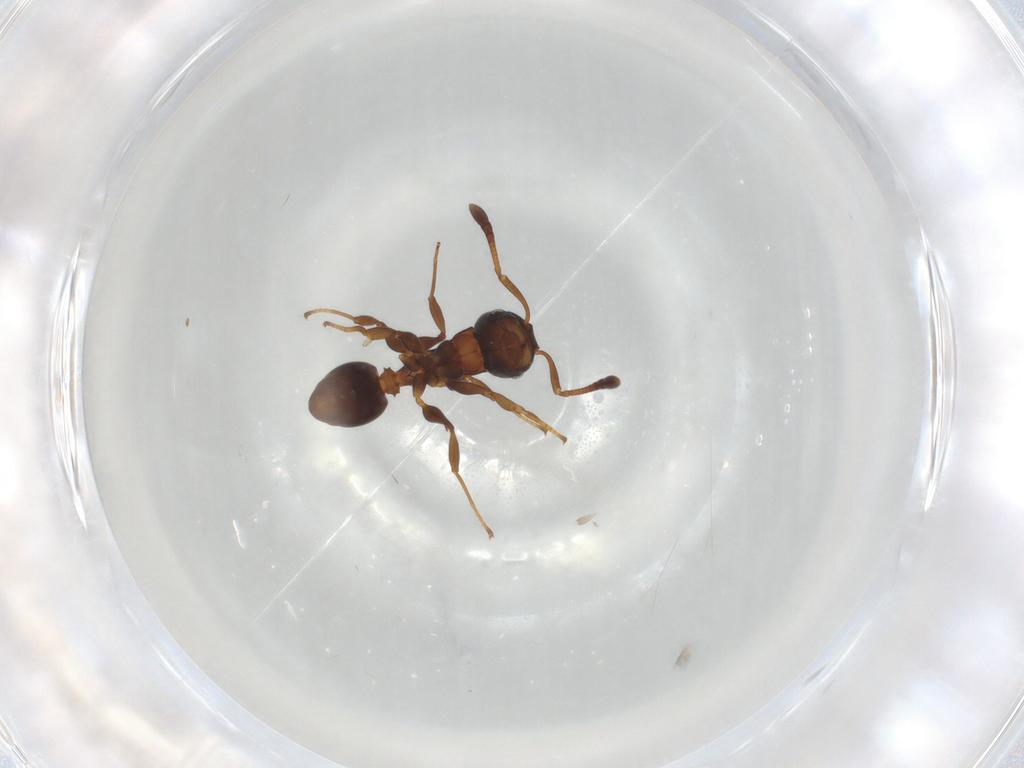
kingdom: Animalia
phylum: Arthropoda
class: Insecta
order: Hymenoptera
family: Formicidae
